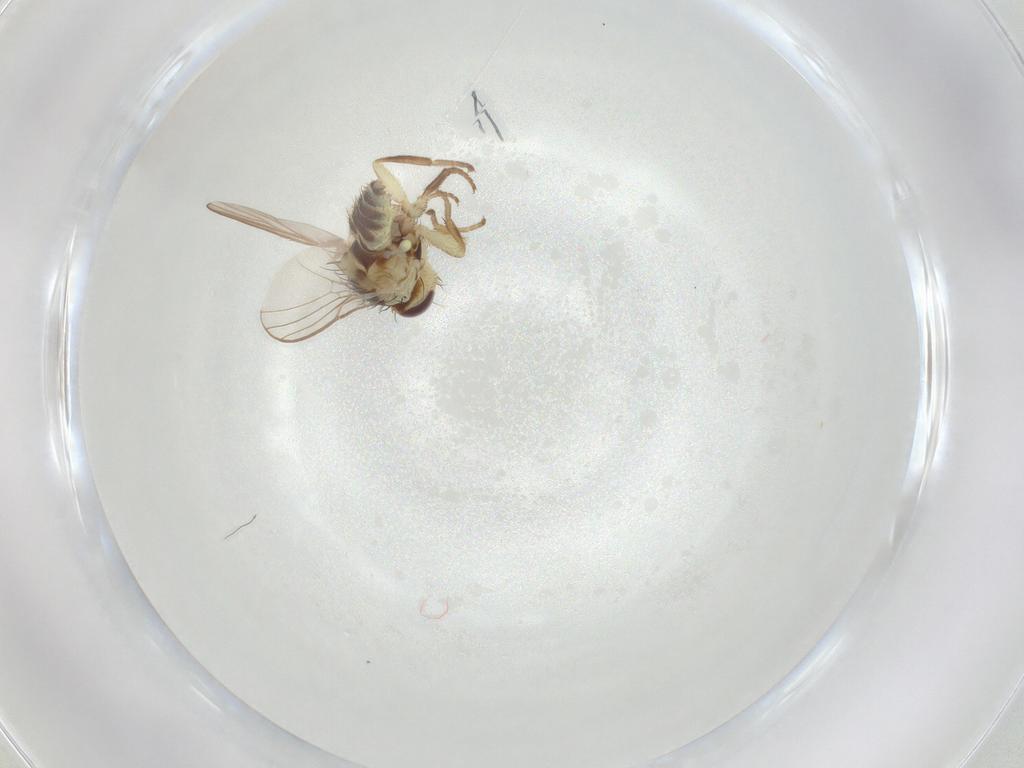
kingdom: Animalia
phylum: Arthropoda
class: Insecta
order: Diptera
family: Agromyzidae
